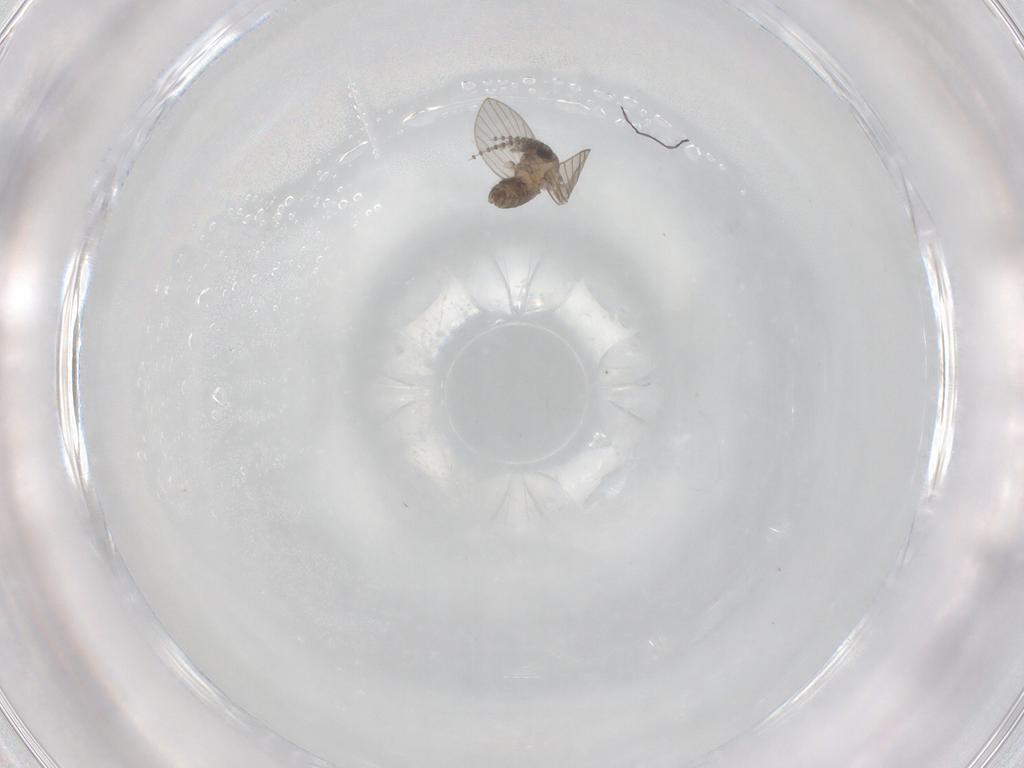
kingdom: Animalia
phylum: Arthropoda
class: Insecta
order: Diptera
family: Psychodidae
